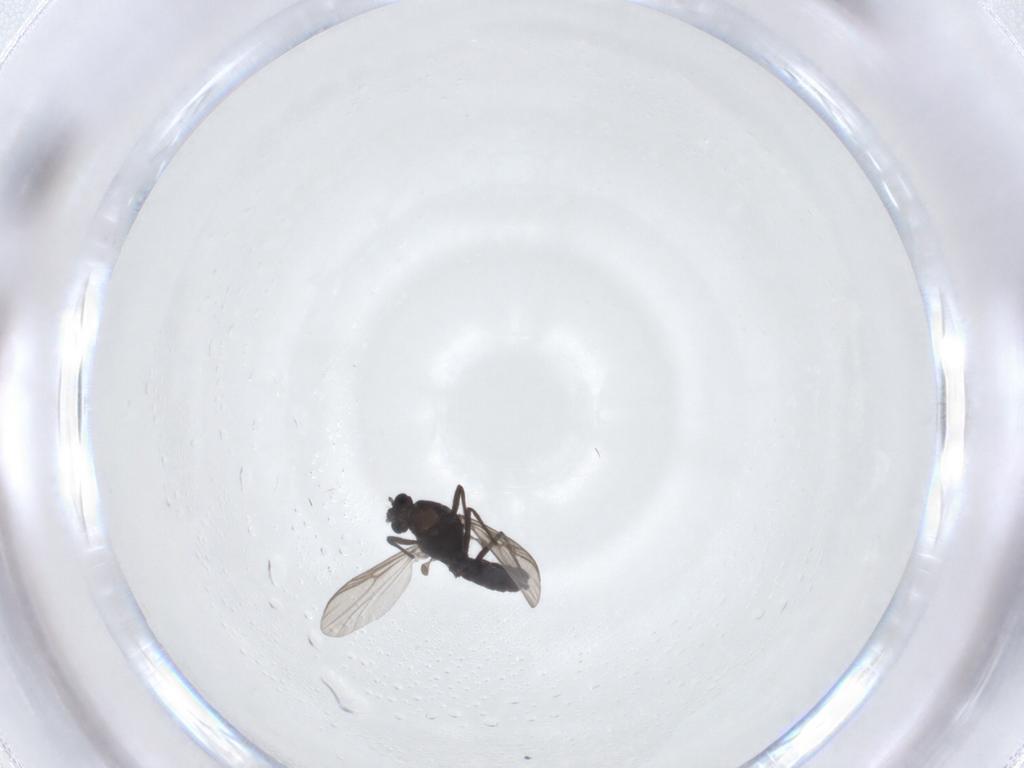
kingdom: Animalia
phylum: Arthropoda
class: Insecta
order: Diptera
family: Chironomidae
